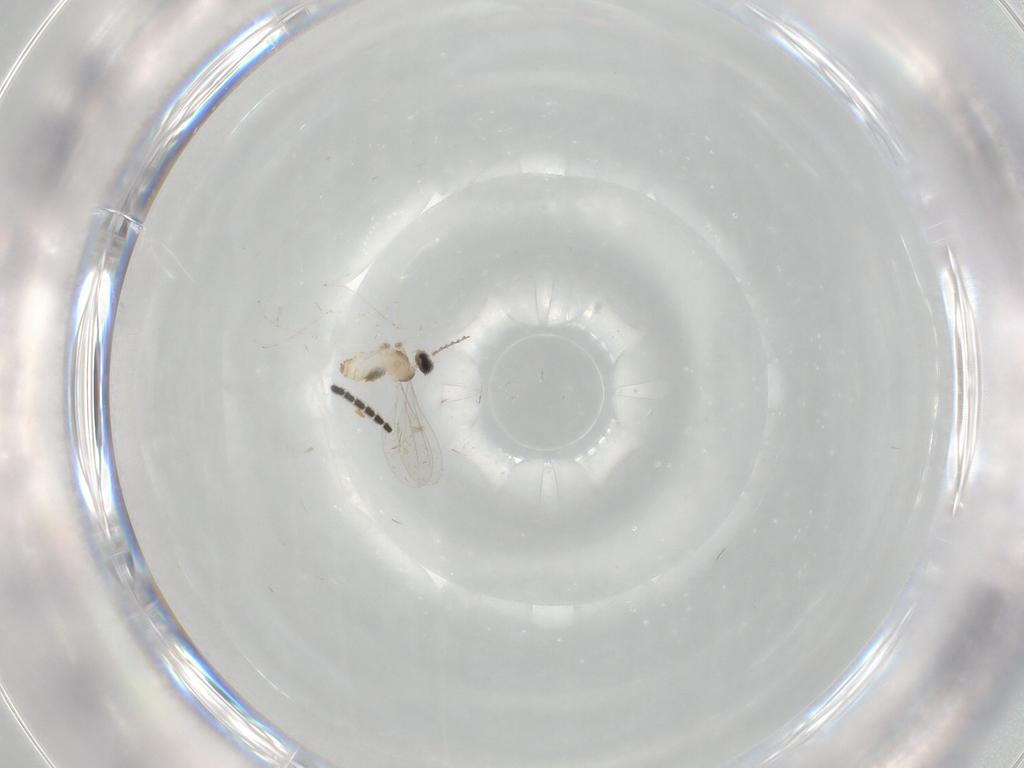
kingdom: Animalia
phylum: Arthropoda
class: Insecta
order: Diptera
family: Cecidomyiidae
